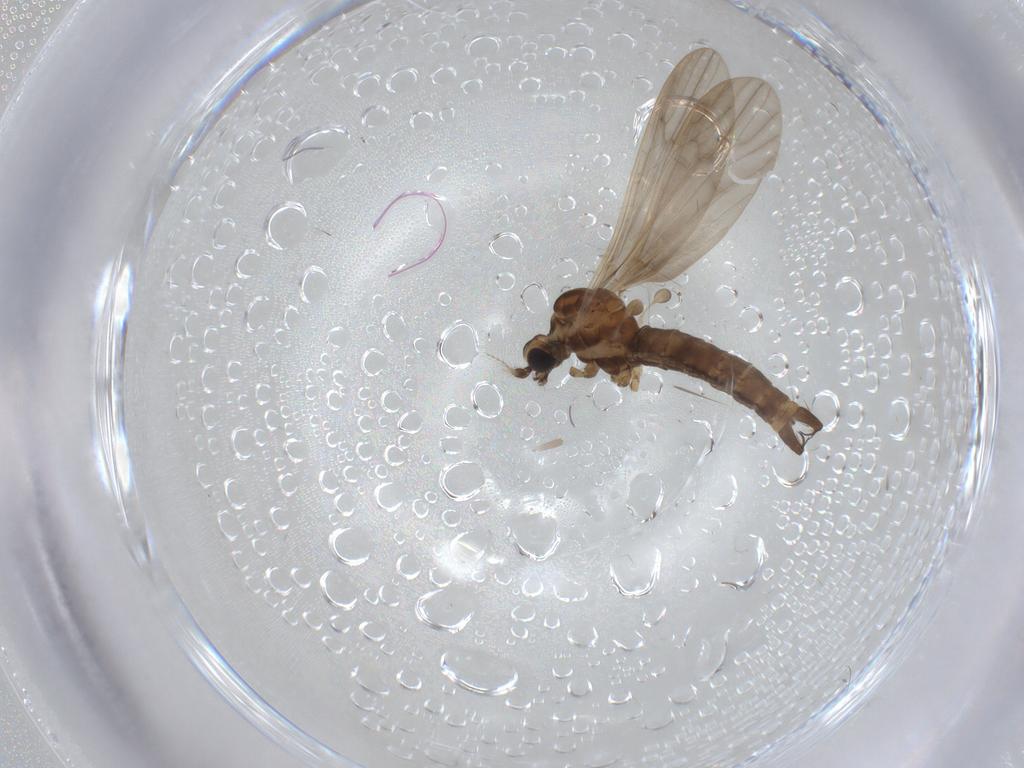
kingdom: Animalia
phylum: Arthropoda
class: Insecta
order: Diptera
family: Limoniidae
